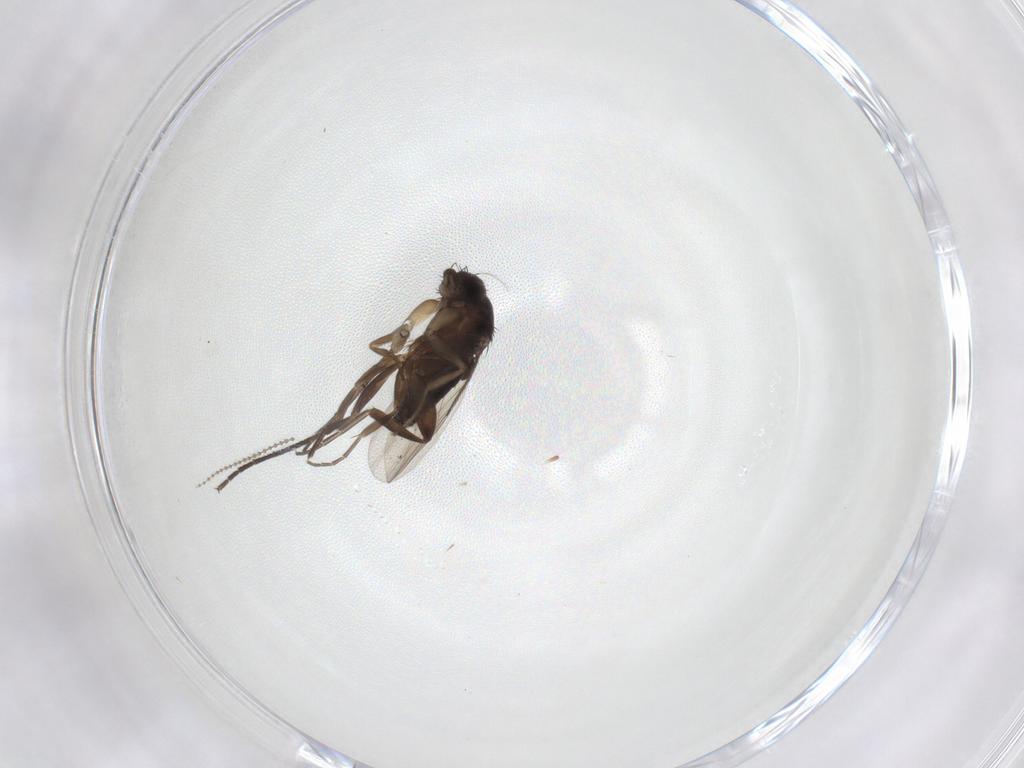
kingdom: Animalia
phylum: Arthropoda
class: Insecta
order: Diptera
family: Phoridae
